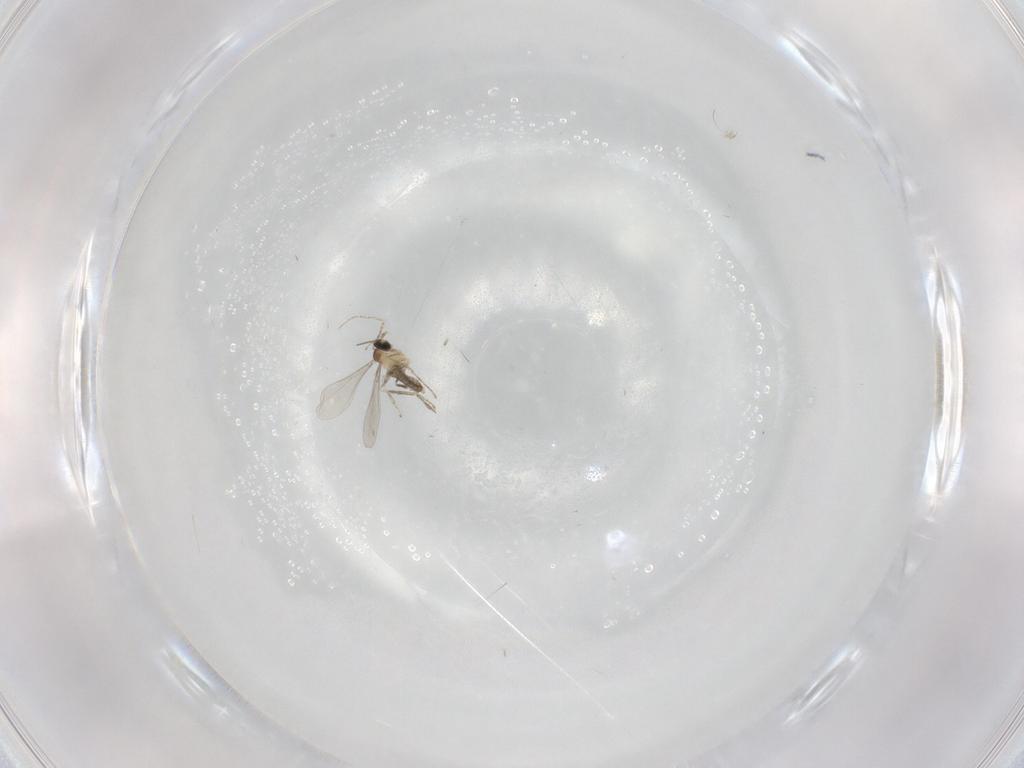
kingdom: Animalia
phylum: Arthropoda
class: Insecta
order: Diptera
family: Cecidomyiidae
